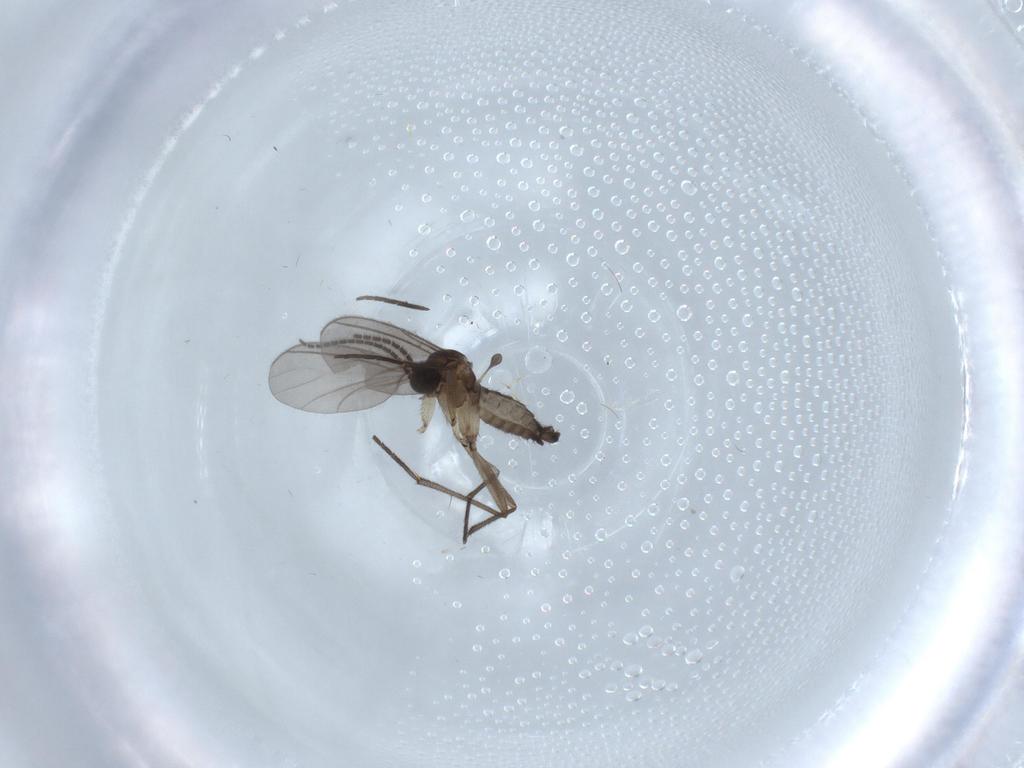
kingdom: Animalia
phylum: Arthropoda
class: Insecta
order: Diptera
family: Sciaridae
